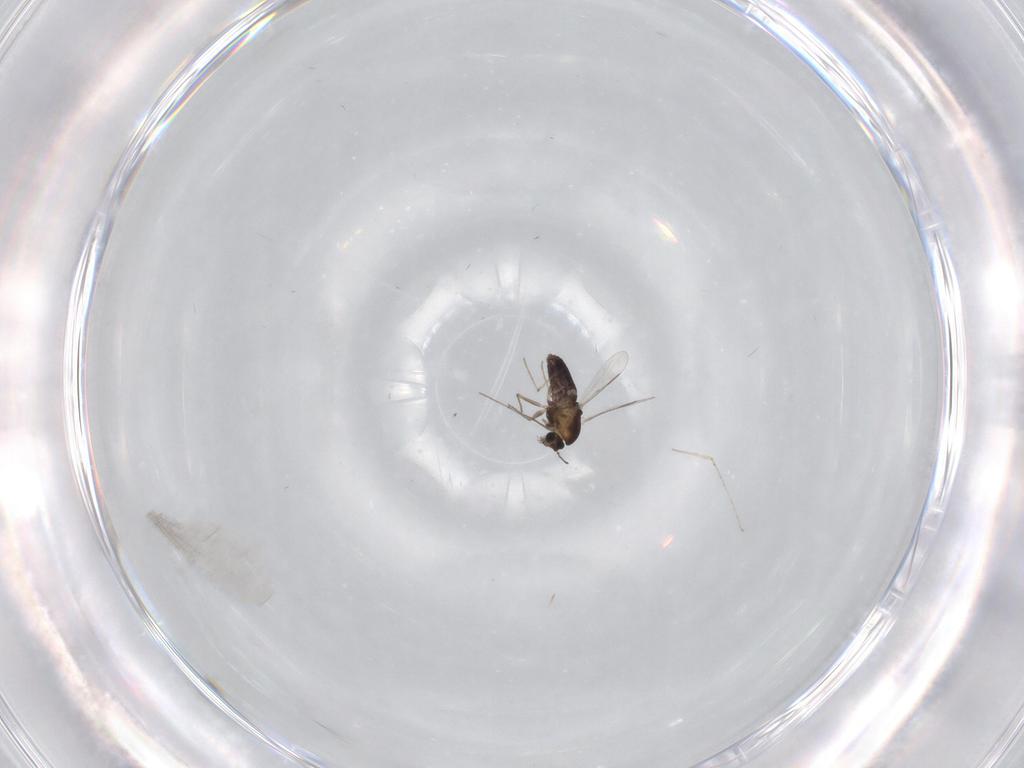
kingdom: Animalia
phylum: Arthropoda
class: Insecta
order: Diptera
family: Chironomidae
